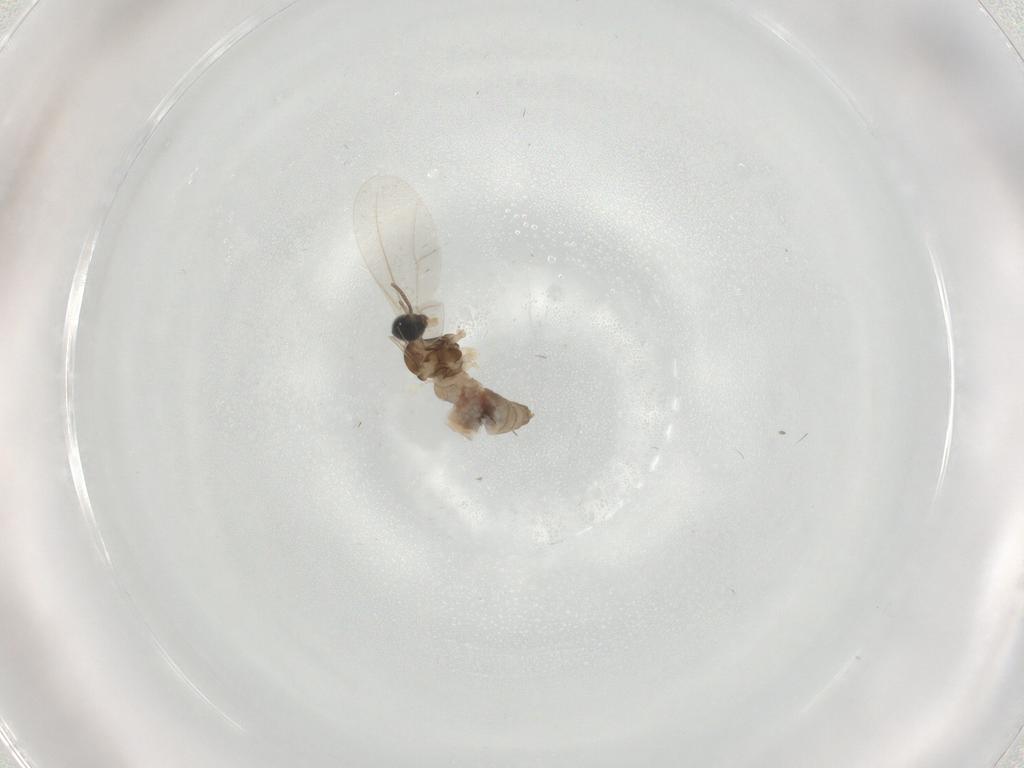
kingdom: Animalia
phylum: Arthropoda
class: Insecta
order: Diptera
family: Cecidomyiidae
